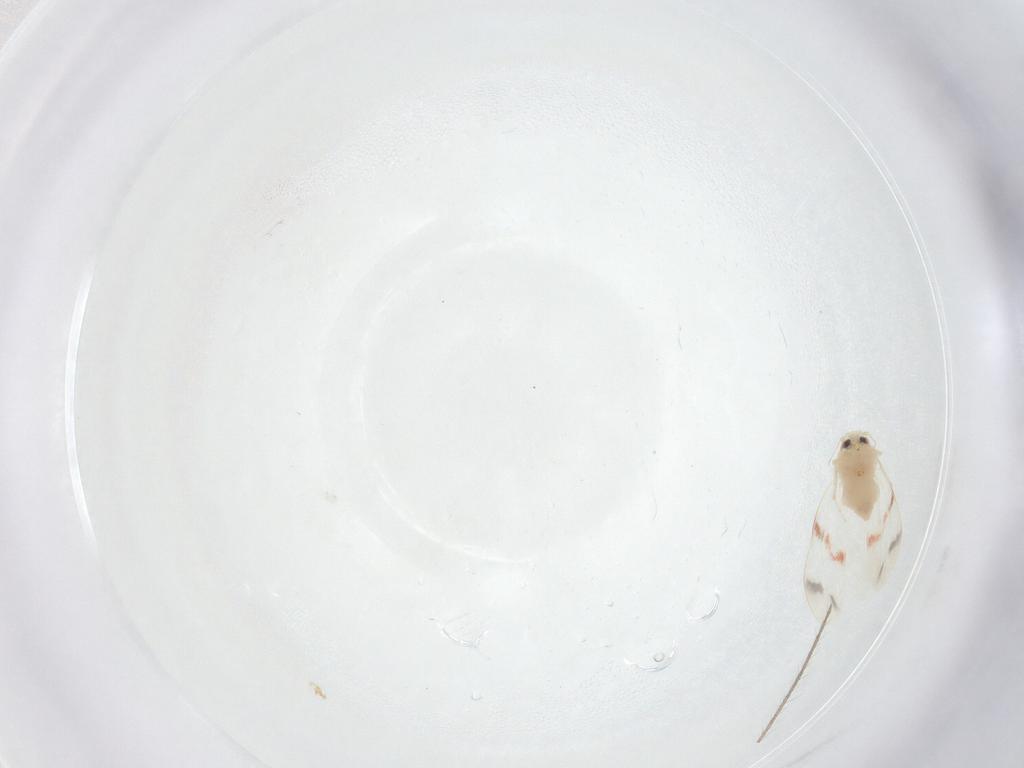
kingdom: Animalia
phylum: Arthropoda
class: Insecta
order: Hemiptera
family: Aleyrodidae
